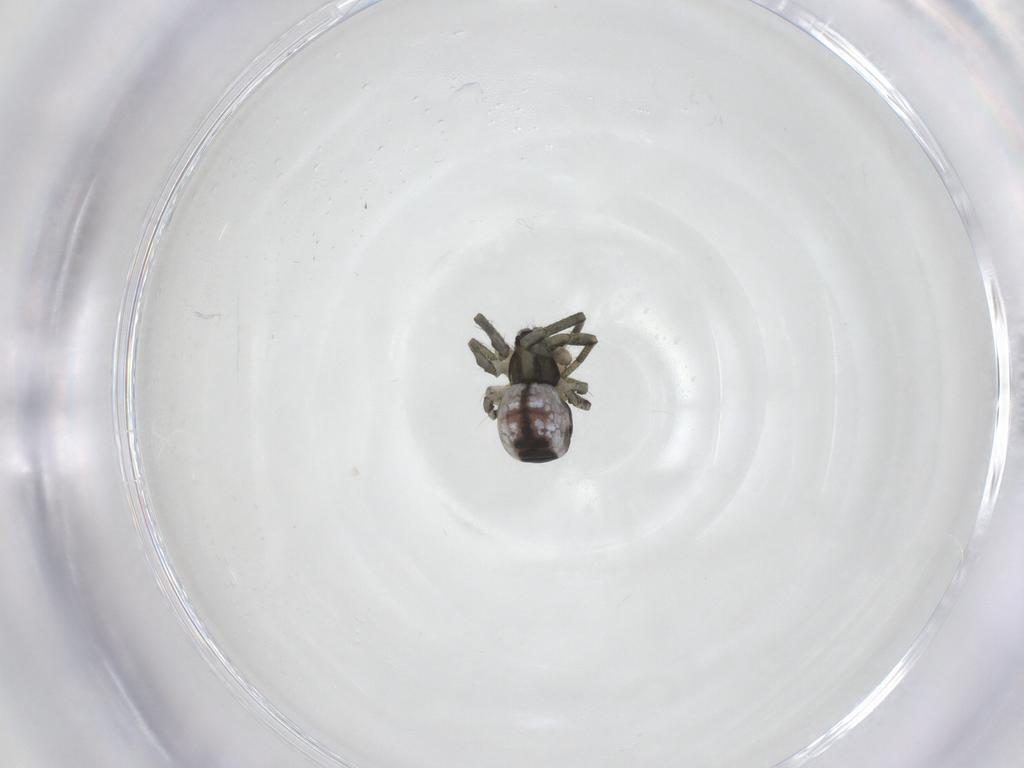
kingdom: Animalia
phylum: Arthropoda
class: Arachnida
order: Araneae
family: Tetragnathidae
